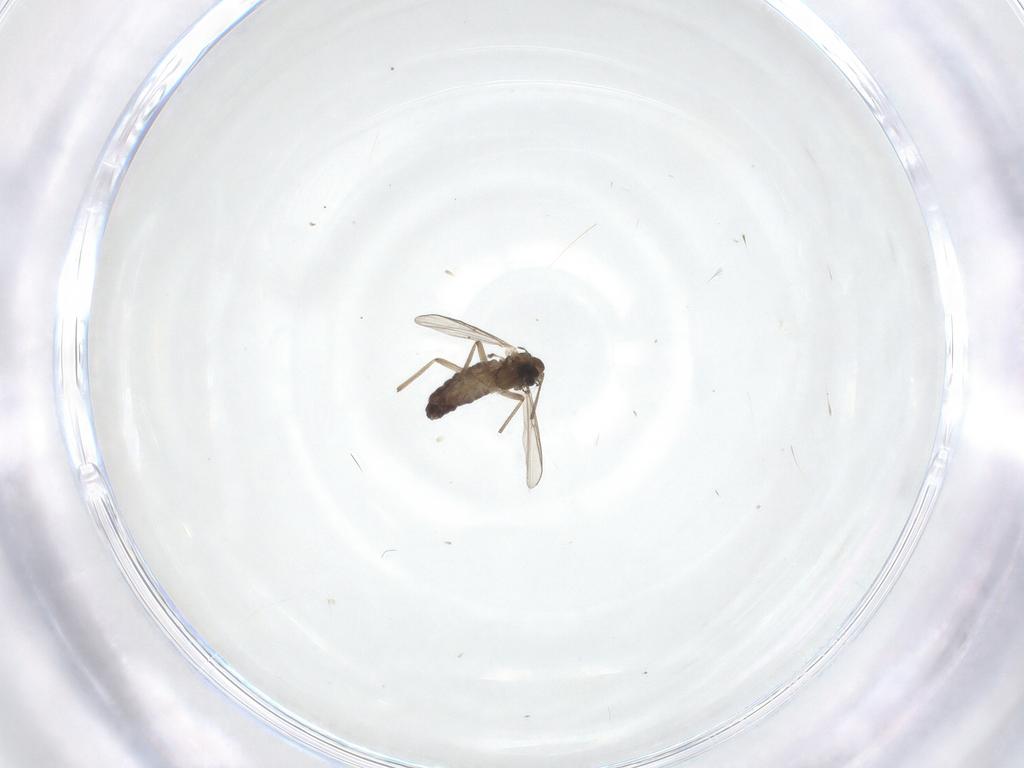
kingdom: Animalia
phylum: Arthropoda
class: Insecta
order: Diptera
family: Chironomidae
